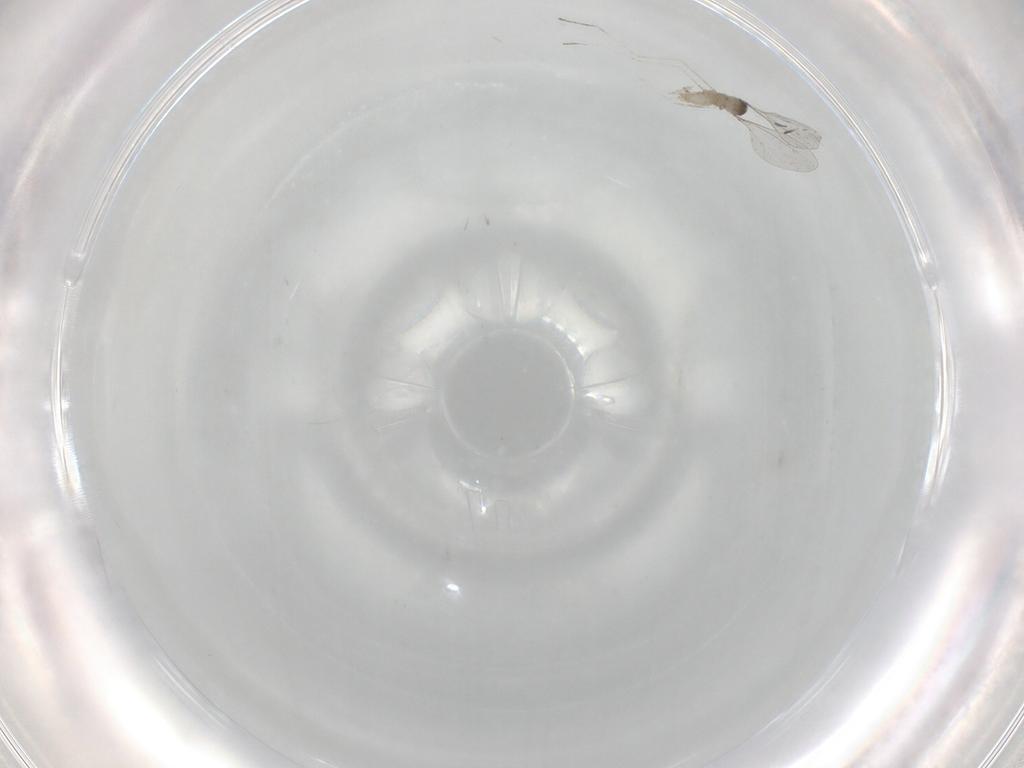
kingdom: Animalia
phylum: Arthropoda
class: Insecta
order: Diptera
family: Cecidomyiidae
